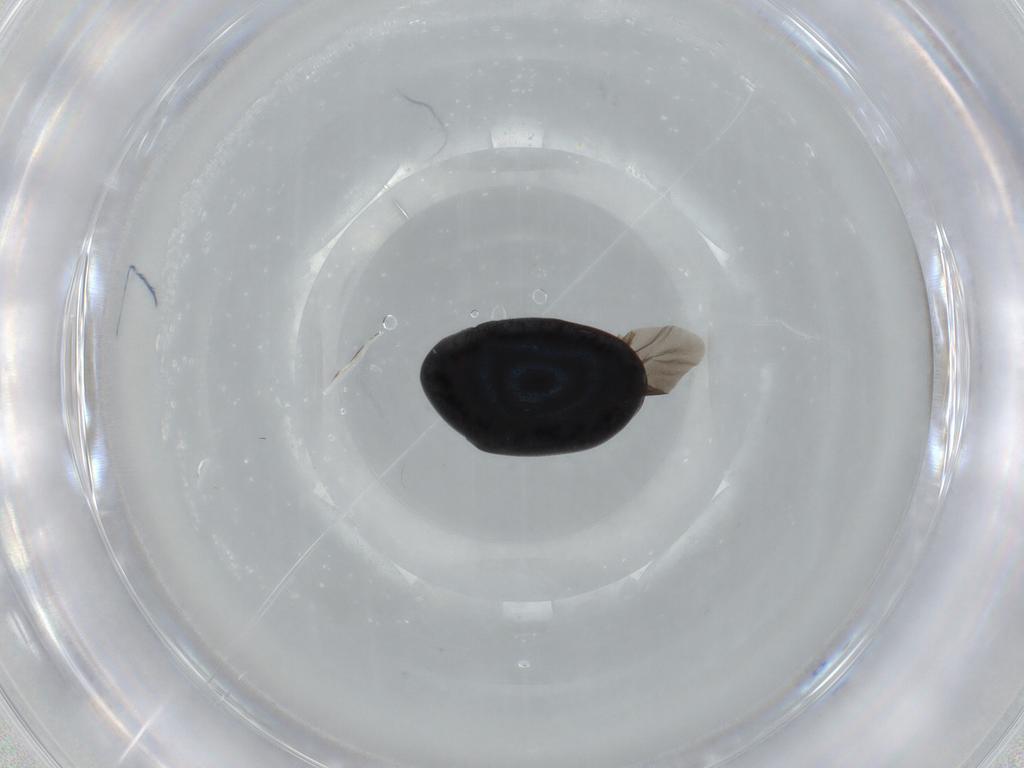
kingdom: Animalia
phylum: Arthropoda
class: Insecta
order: Coleoptera
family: Ptinidae
